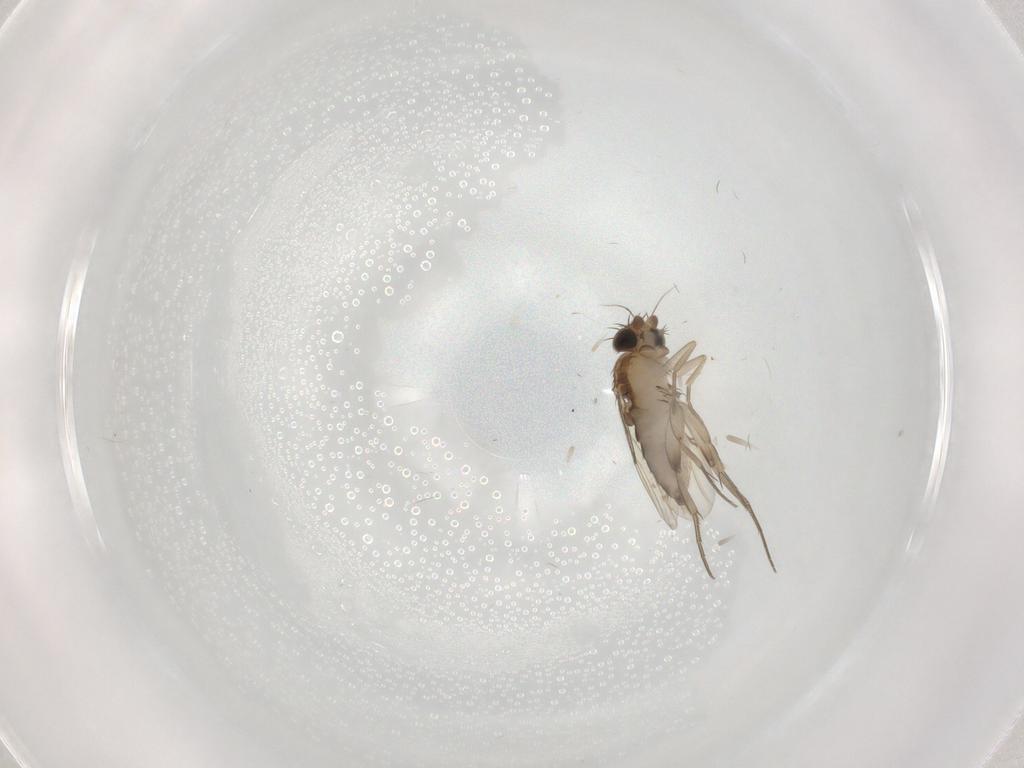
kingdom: Animalia
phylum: Arthropoda
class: Insecta
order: Diptera
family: Phoridae
